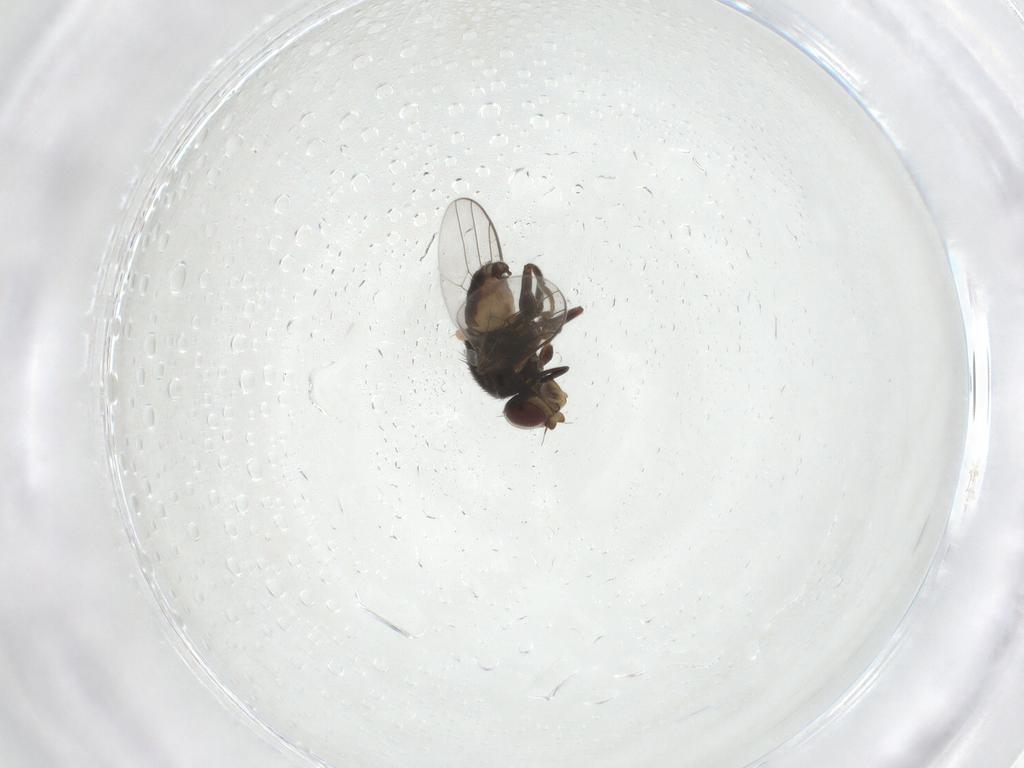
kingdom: Animalia
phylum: Arthropoda
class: Insecta
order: Diptera
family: Chloropidae
